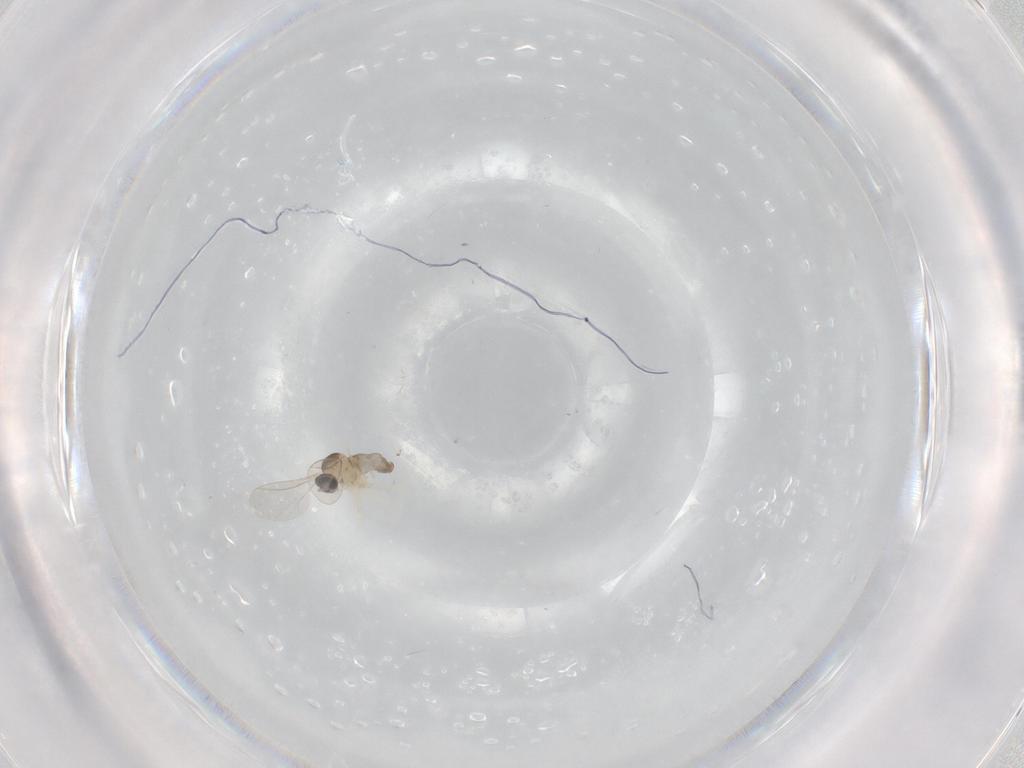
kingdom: Animalia
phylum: Arthropoda
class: Insecta
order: Diptera
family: Cecidomyiidae
